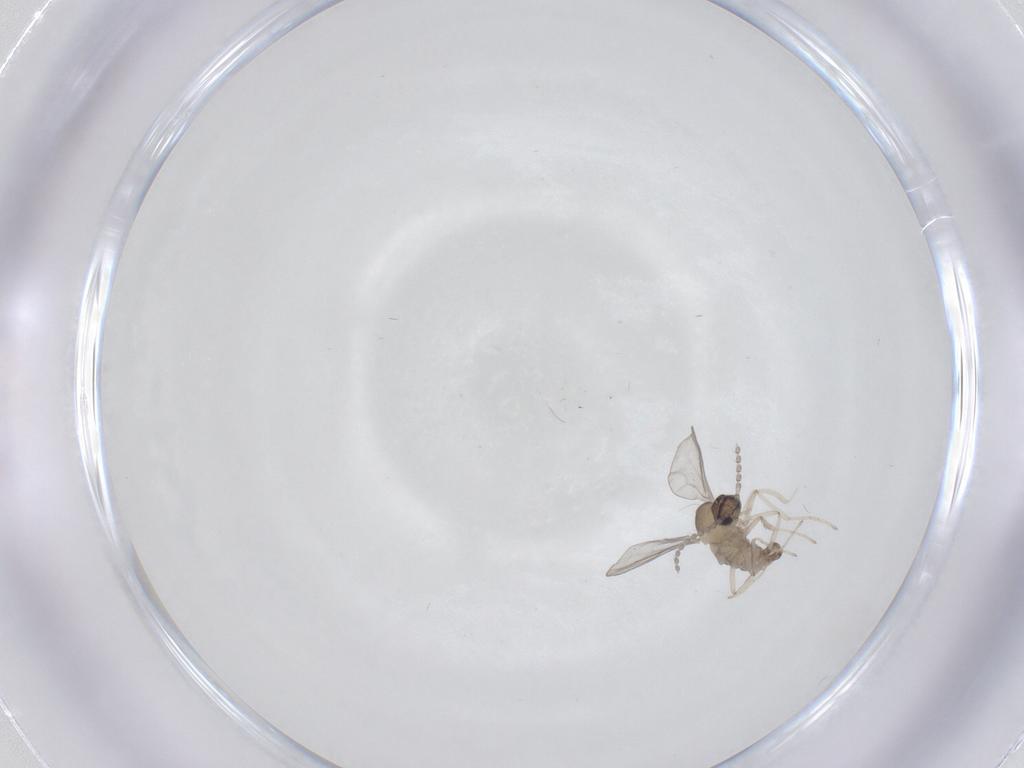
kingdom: Animalia
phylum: Arthropoda
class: Insecta
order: Diptera
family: Cecidomyiidae
